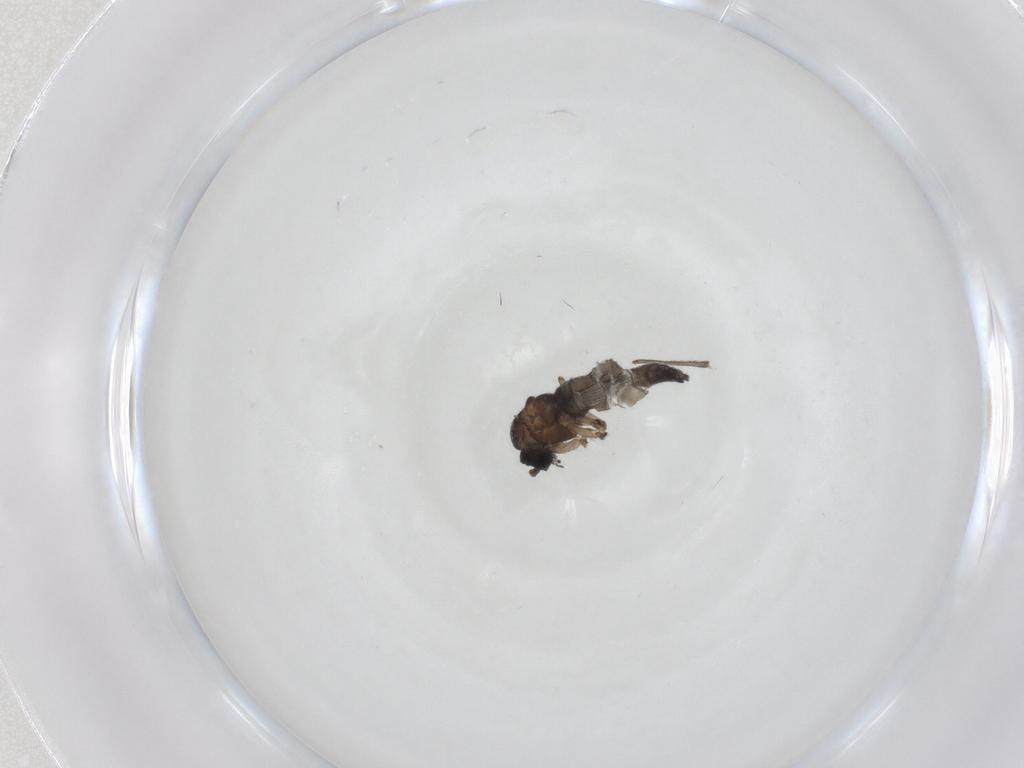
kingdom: Animalia
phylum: Arthropoda
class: Insecta
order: Diptera
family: Sciaridae
